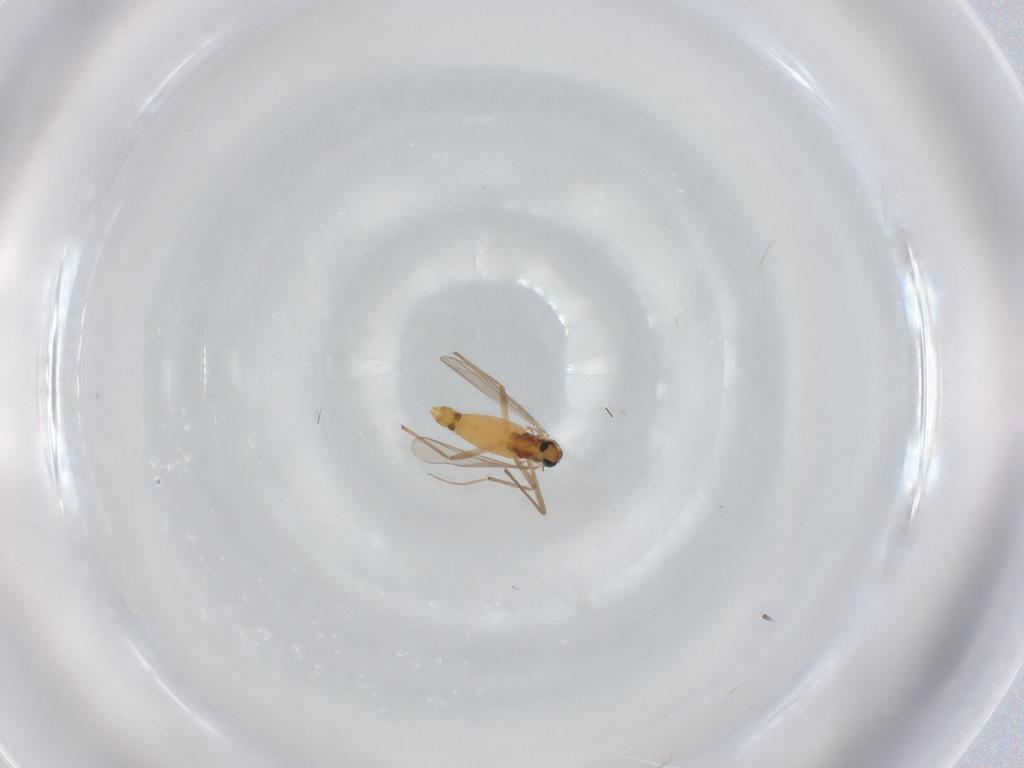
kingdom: Animalia
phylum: Arthropoda
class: Insecta
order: Diptera
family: Chironomidae
